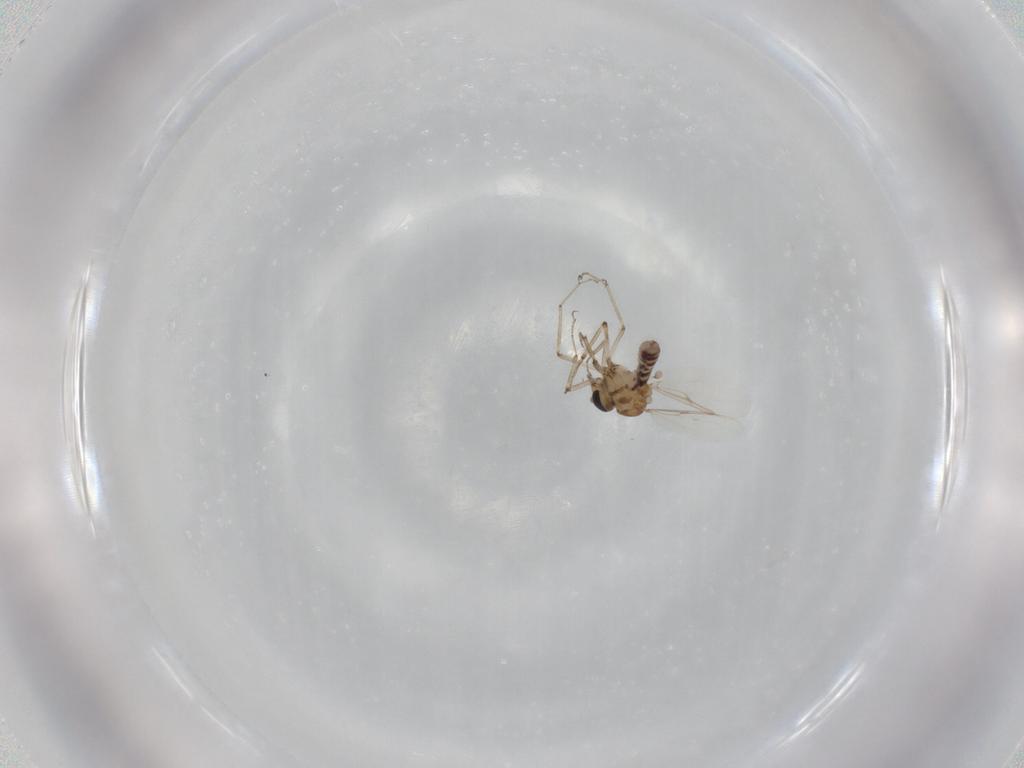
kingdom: Animalia
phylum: Arthropoda
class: Insecta
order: Diptera
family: Ceratopogonidae
